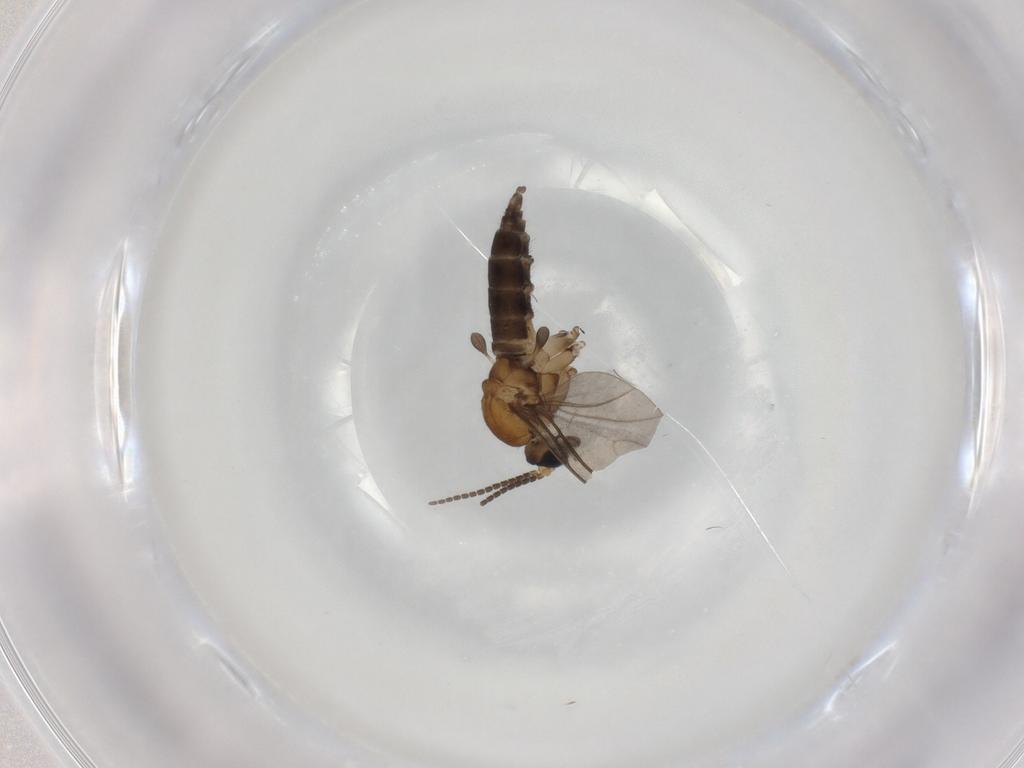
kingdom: Animalia
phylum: Arthropoda
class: Insecta
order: Diptera
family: Sciaridae
